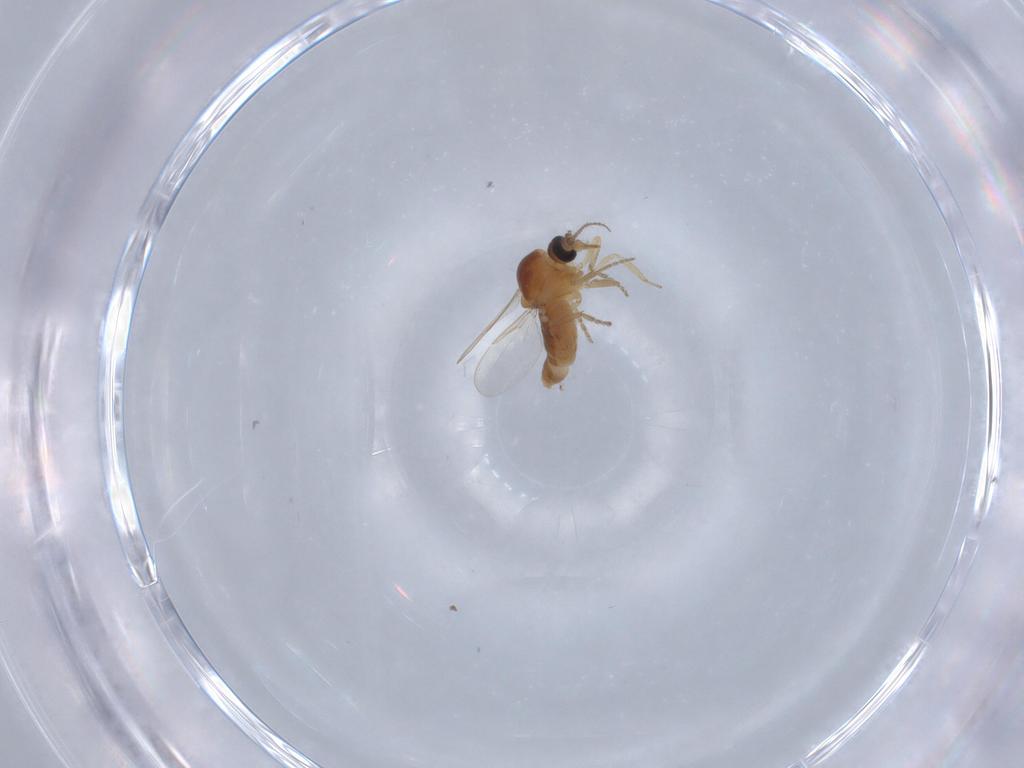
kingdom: Animalia
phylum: Arthropoda
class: Insecta
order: Diptera
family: Ceratopogonidae
